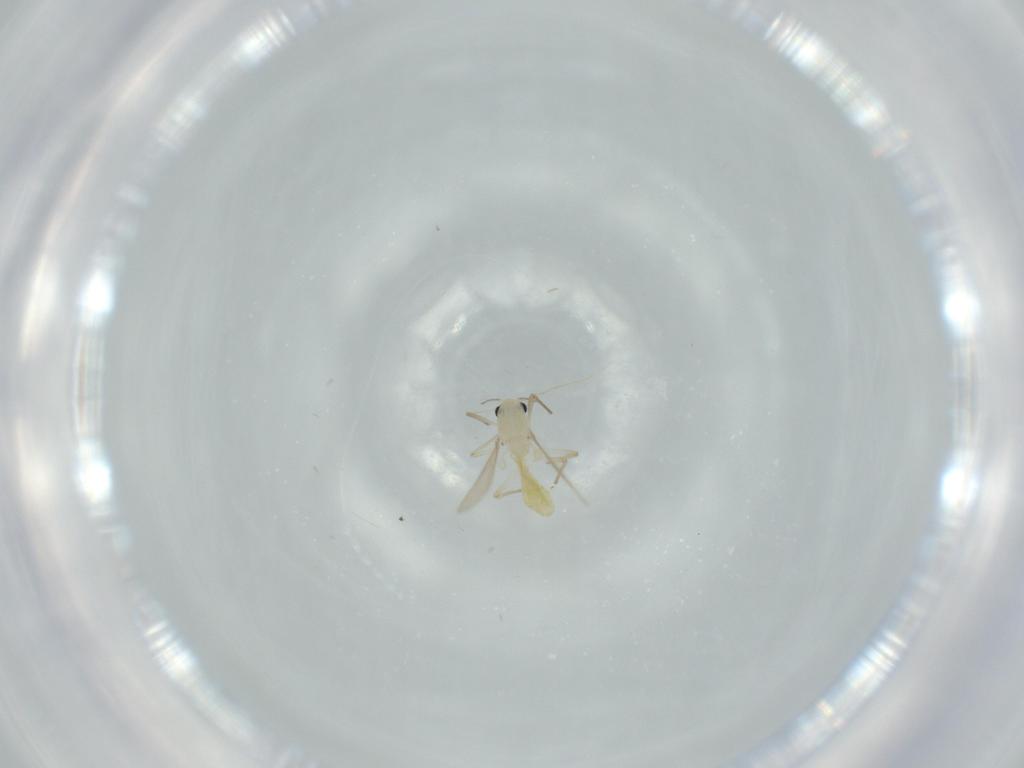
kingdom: Animalia
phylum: Arthropoda
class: Insecta
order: Diptera
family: Chironomidae
